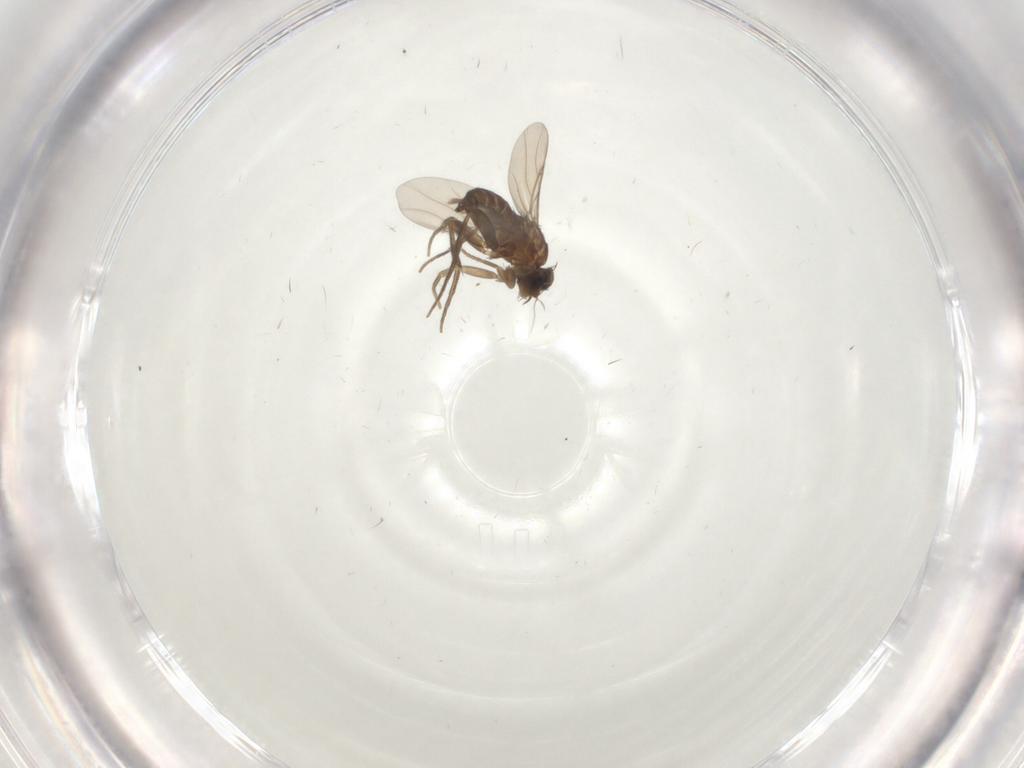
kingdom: Animalia
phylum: Arthropoda
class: Insecta
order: Diptera
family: Phoridae
